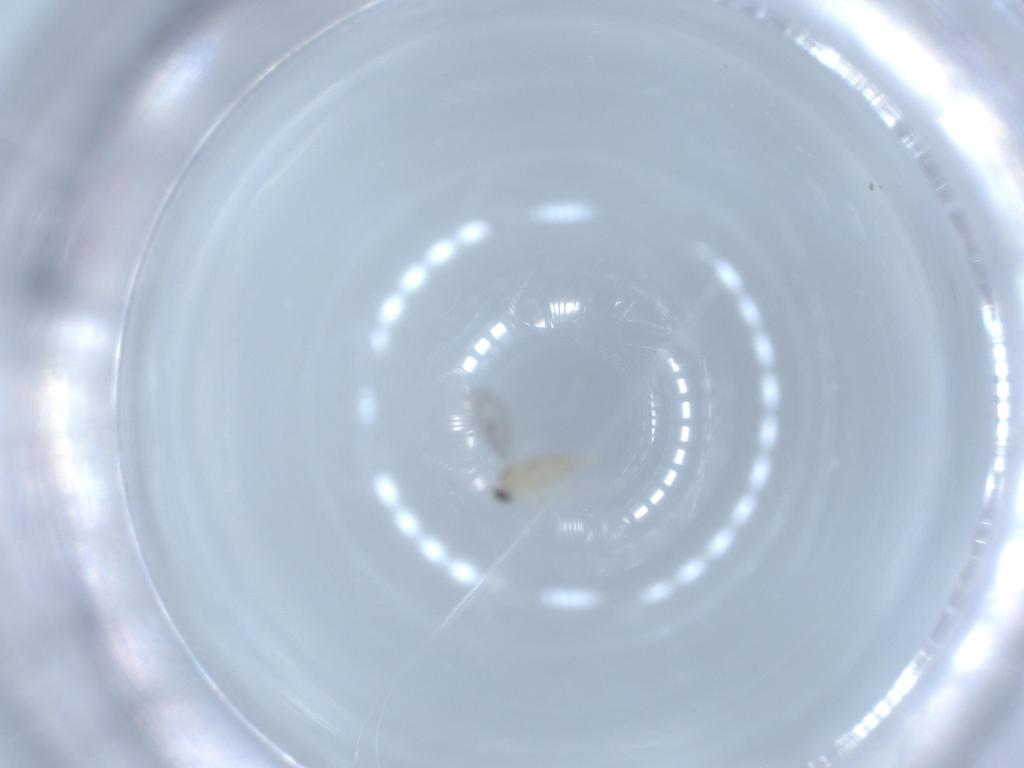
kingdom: Animalia
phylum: Arthropoda
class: Insecta
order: Diptera
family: Cecidomyiidae
